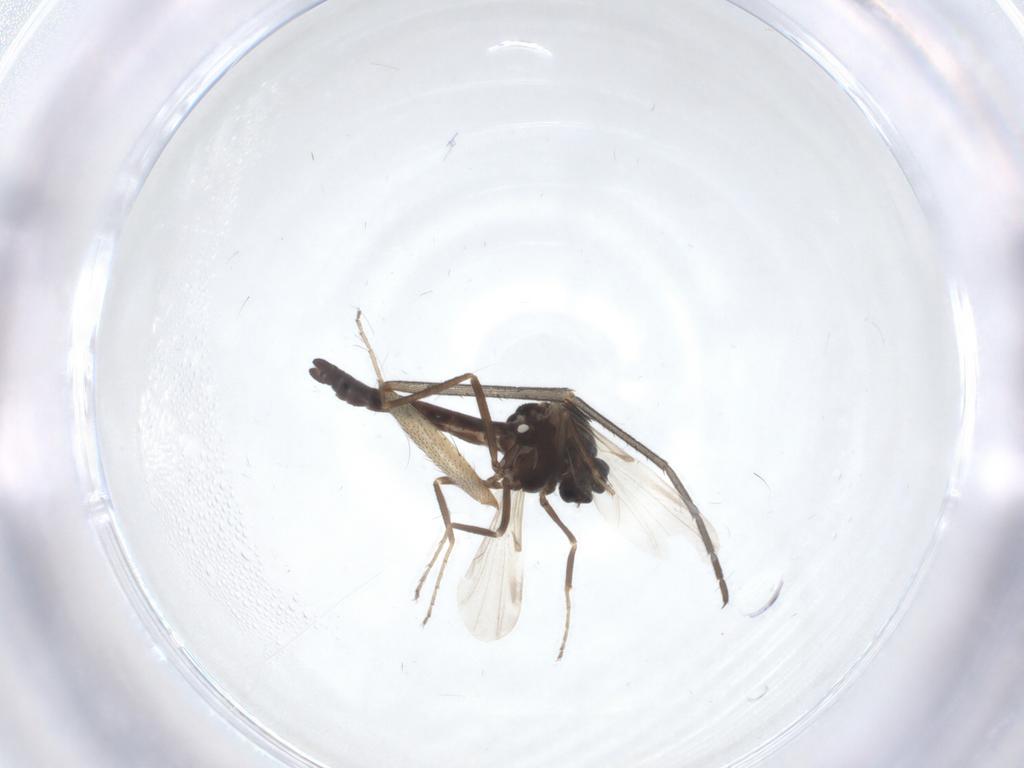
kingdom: Animalia
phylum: Arthropoda
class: Insecta
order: Diptera
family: Ceratopogonidae
